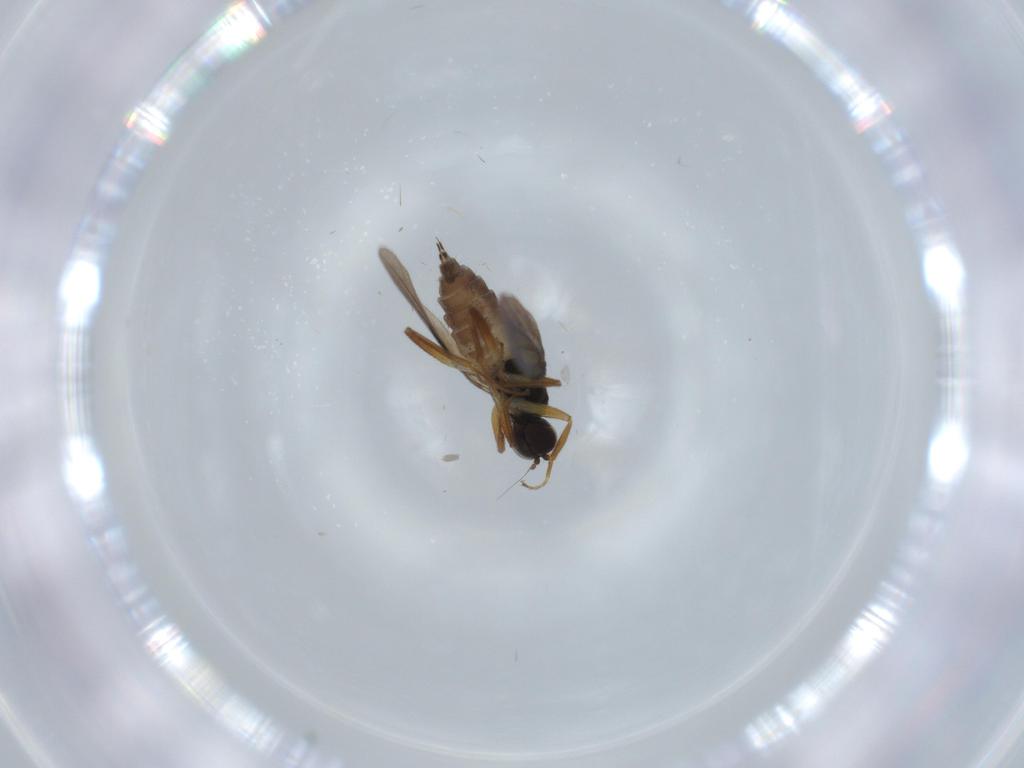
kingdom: Animalia
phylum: Arthropoda
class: Insecta
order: Diptera
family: Hybotidae
